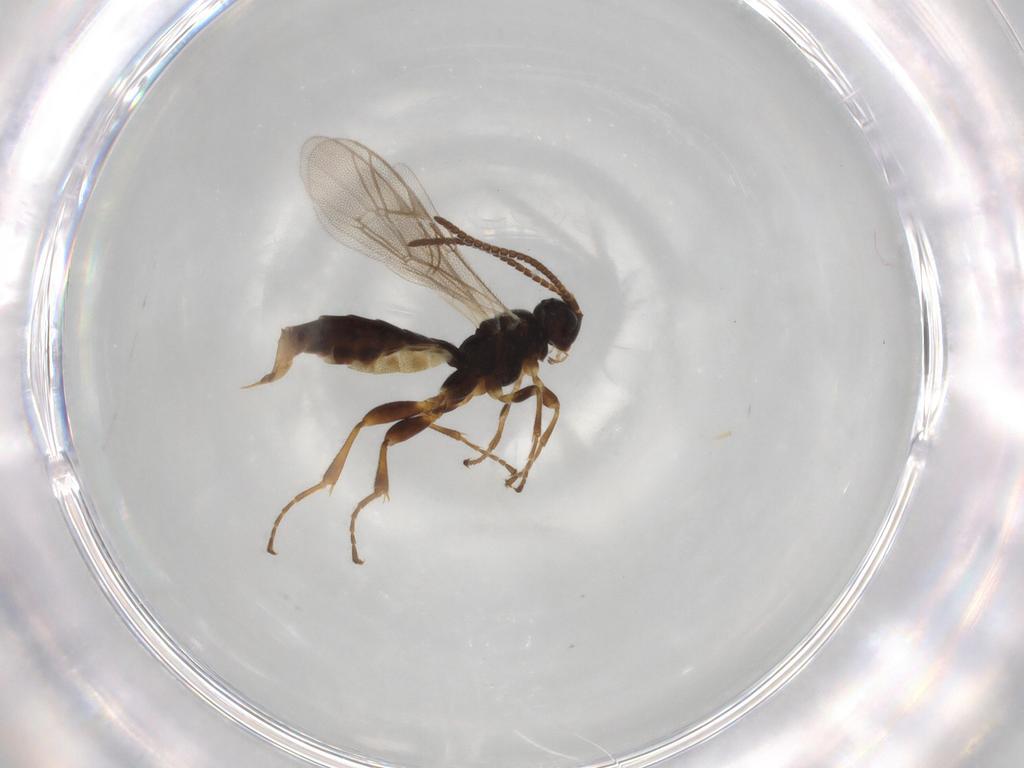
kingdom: Animalia
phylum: Arthropoda
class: Insecta
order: Hymenoptera
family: Ichneumonidae
